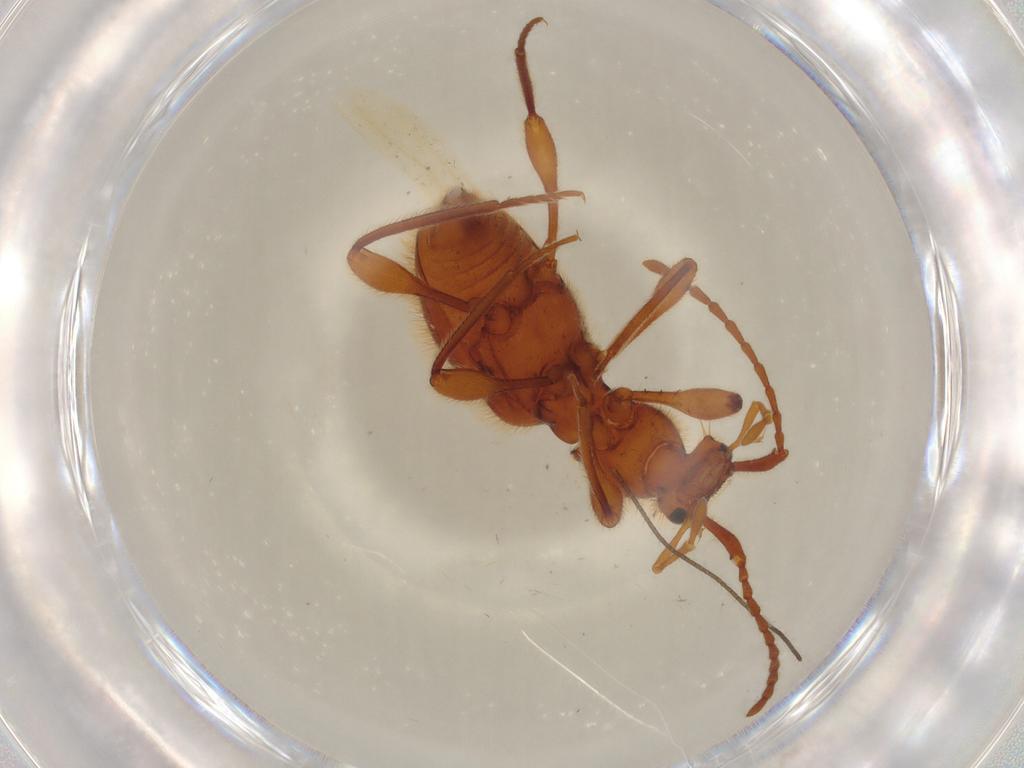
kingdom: Animalia
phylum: Arthropoda
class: Insecta
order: Coleoptera
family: Staphylinidae
